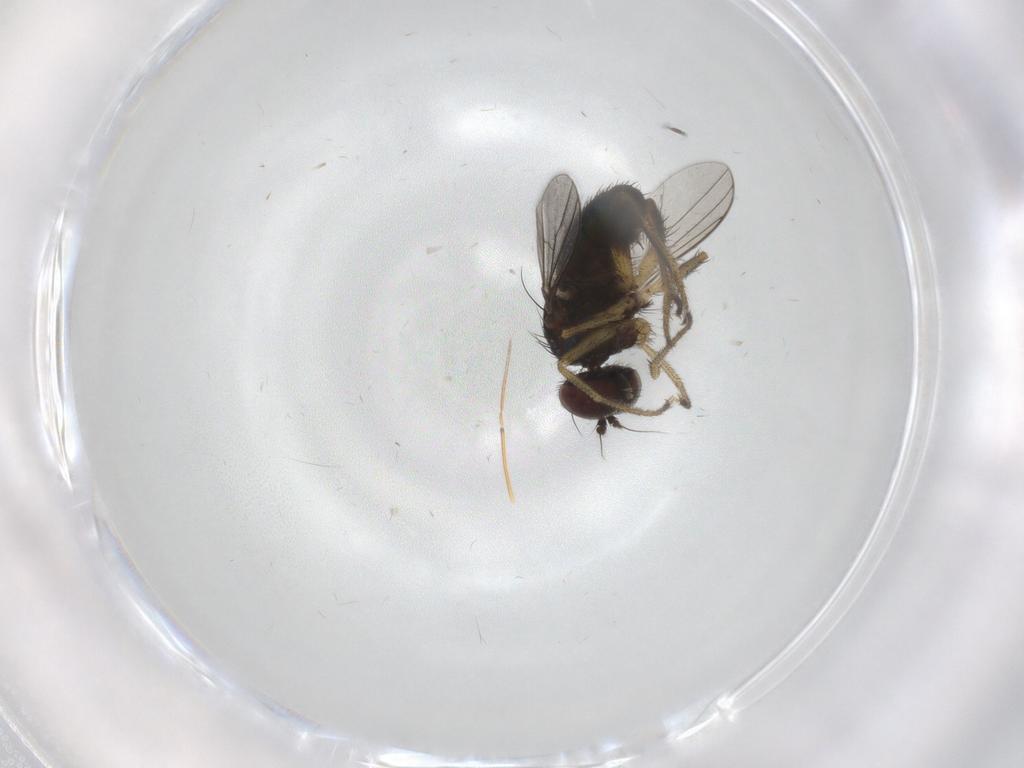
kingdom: Animalia
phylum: Arthropoda
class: Insecta
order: Diptera
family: Dolichopodidae
